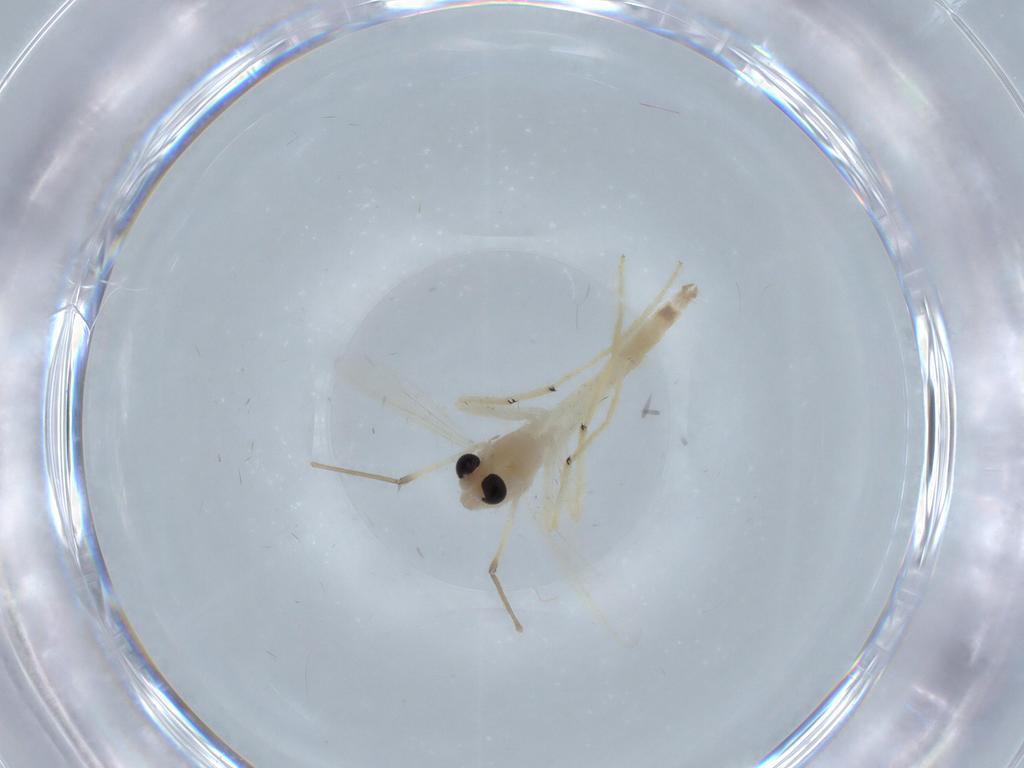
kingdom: Animalia
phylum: Arthropoda
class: Insecta
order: Diptera
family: Chironomidae
